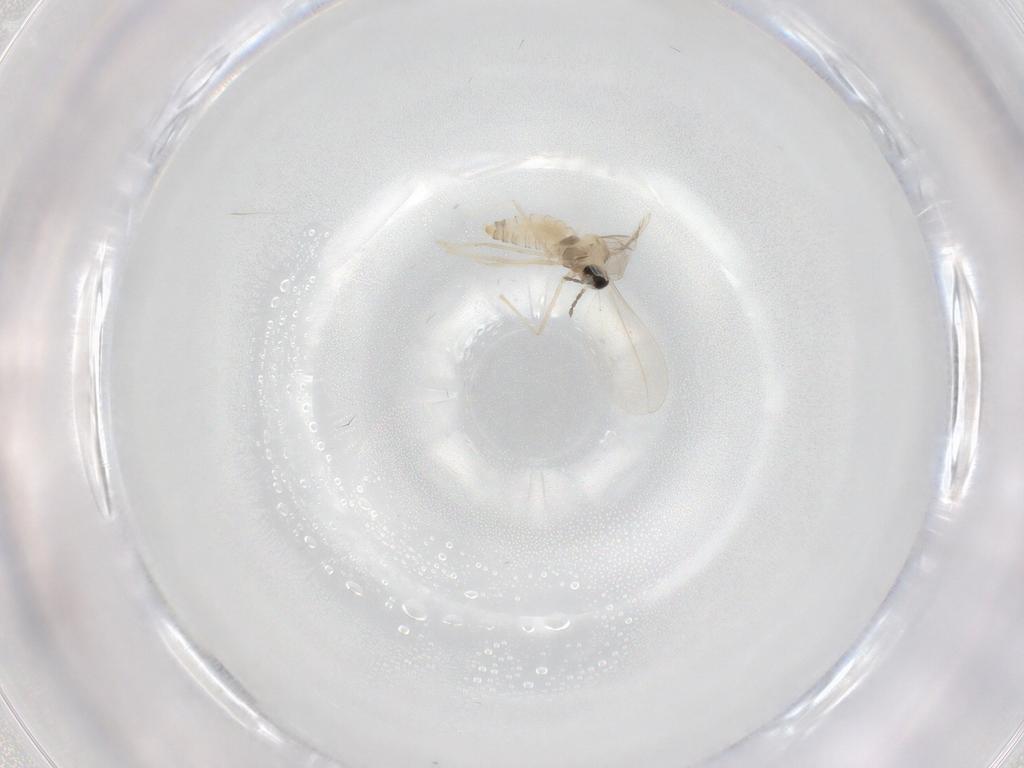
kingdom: Animalia
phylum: Arthropoda
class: Insecta
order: Diptera
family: Cecidomyiidae
